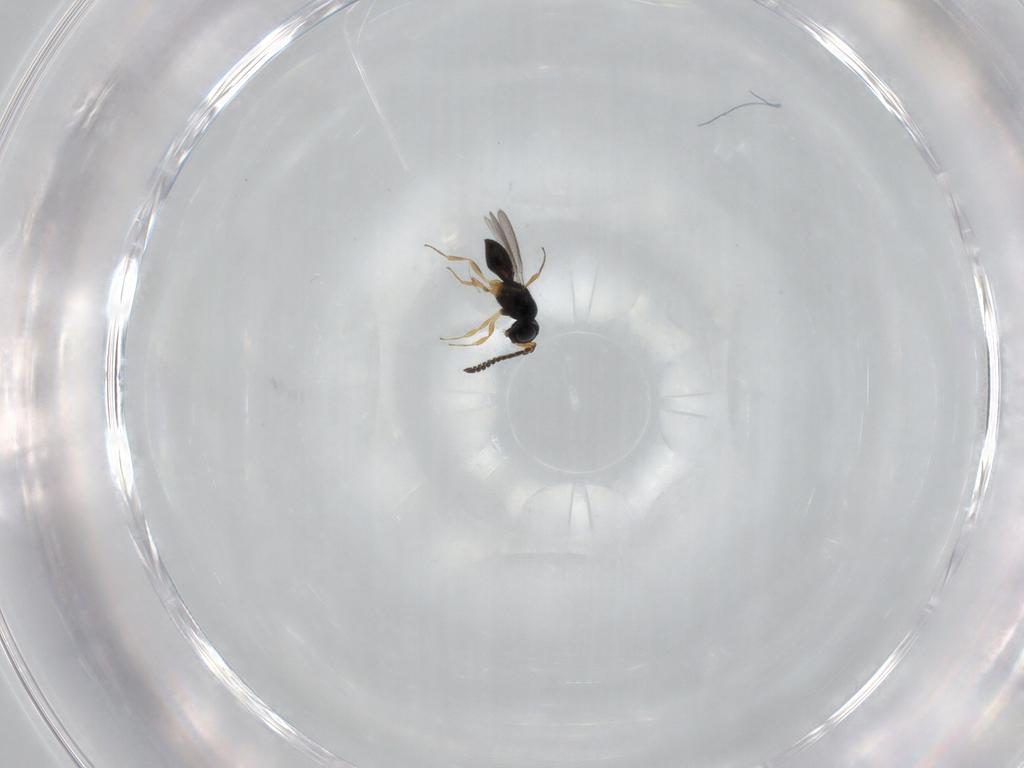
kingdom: Animalia
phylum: Arthropoda
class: Insecta
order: Hymenoptera
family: Scelionidae
